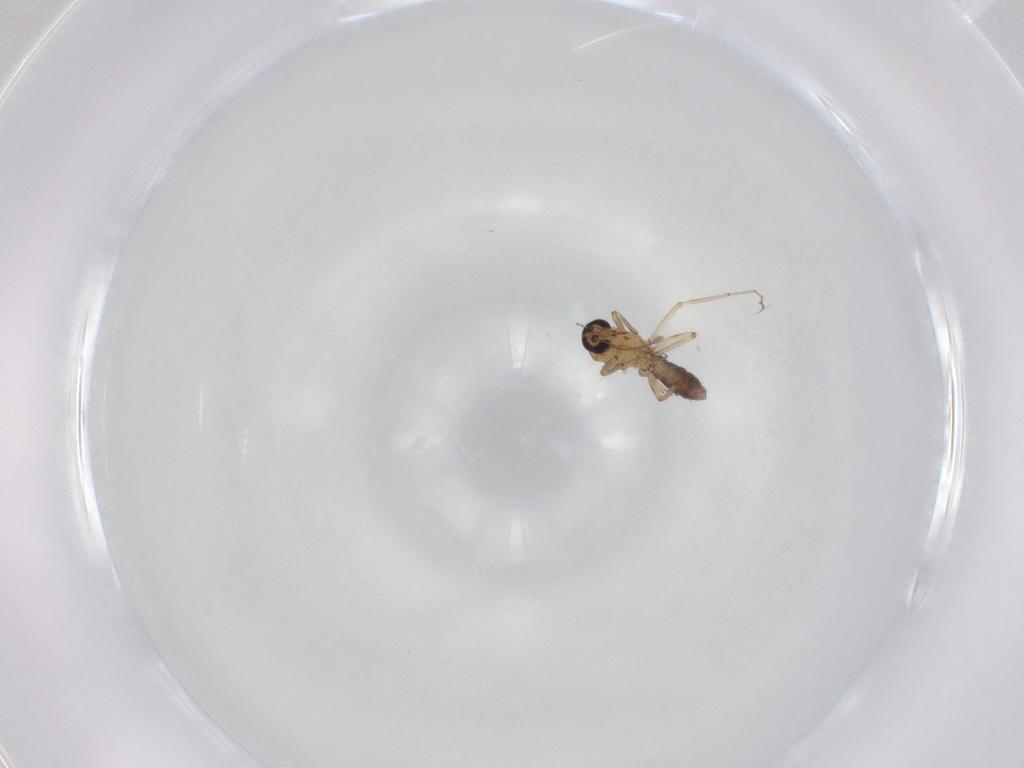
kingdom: Animalia
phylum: Arthropoda
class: Insecta
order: Diptera
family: Ceratopogonidae
